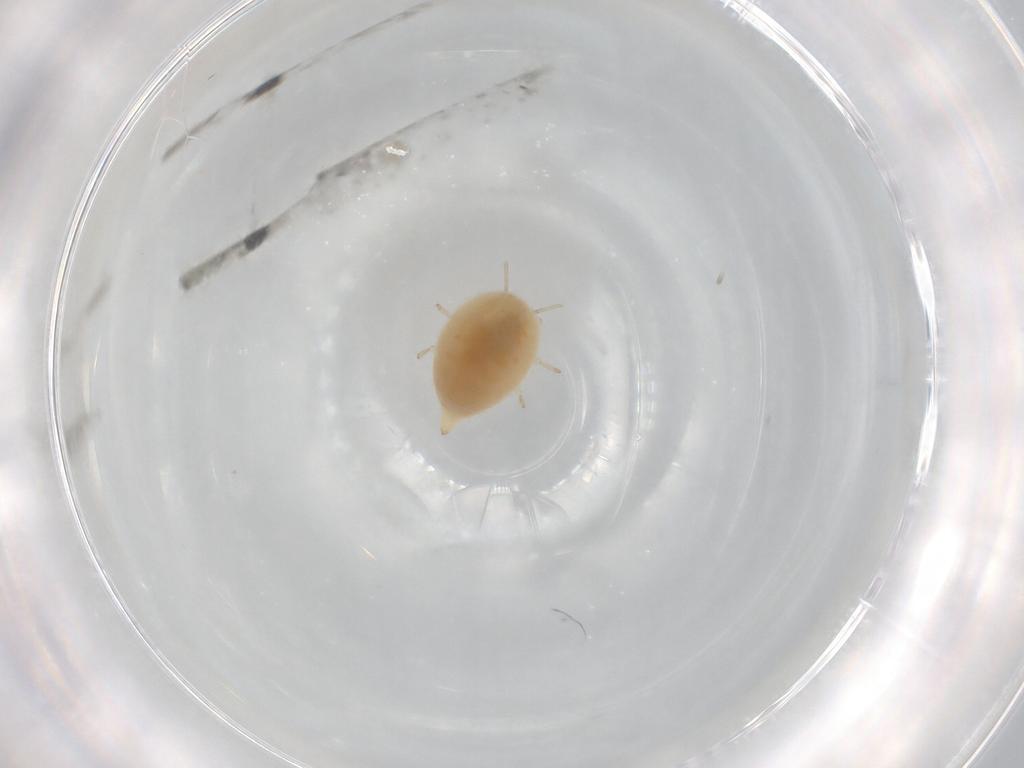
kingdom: Animalia
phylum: Arthropoda
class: Insecta
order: Neuroptera
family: Coniopterygidae
